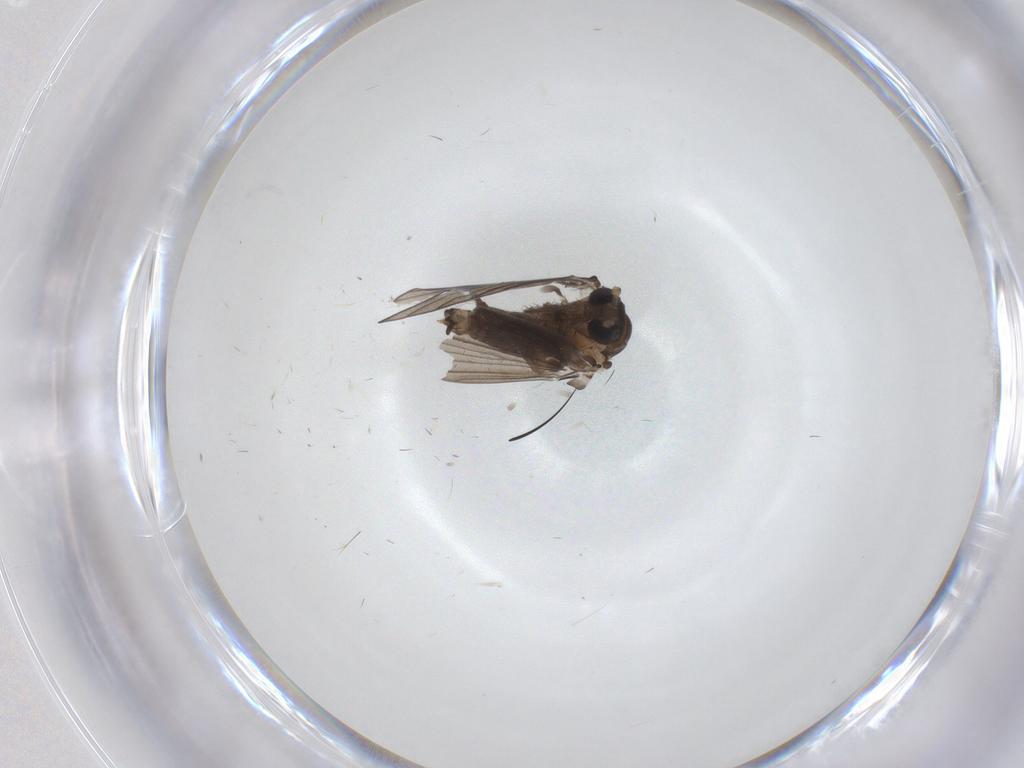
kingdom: Animalia
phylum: Arthropoda
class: Insecta
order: Diptera
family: Psychodidae
